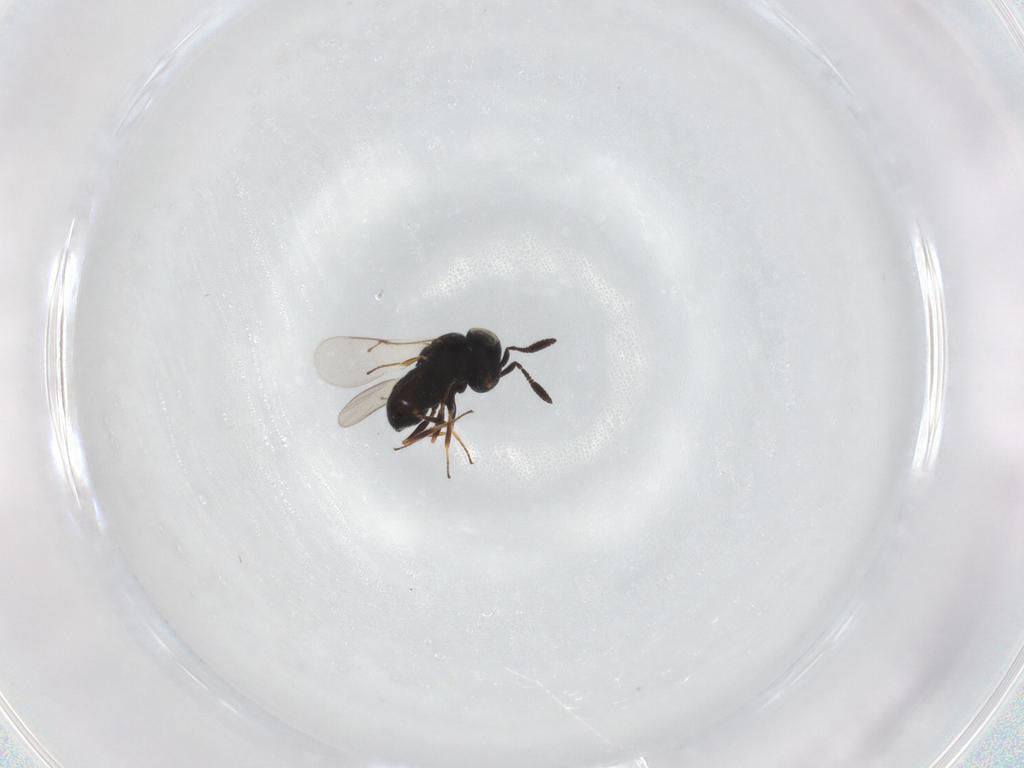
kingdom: Animalia
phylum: Arthropoda
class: Insecta
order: Hymenoptera
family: Scelionidae
